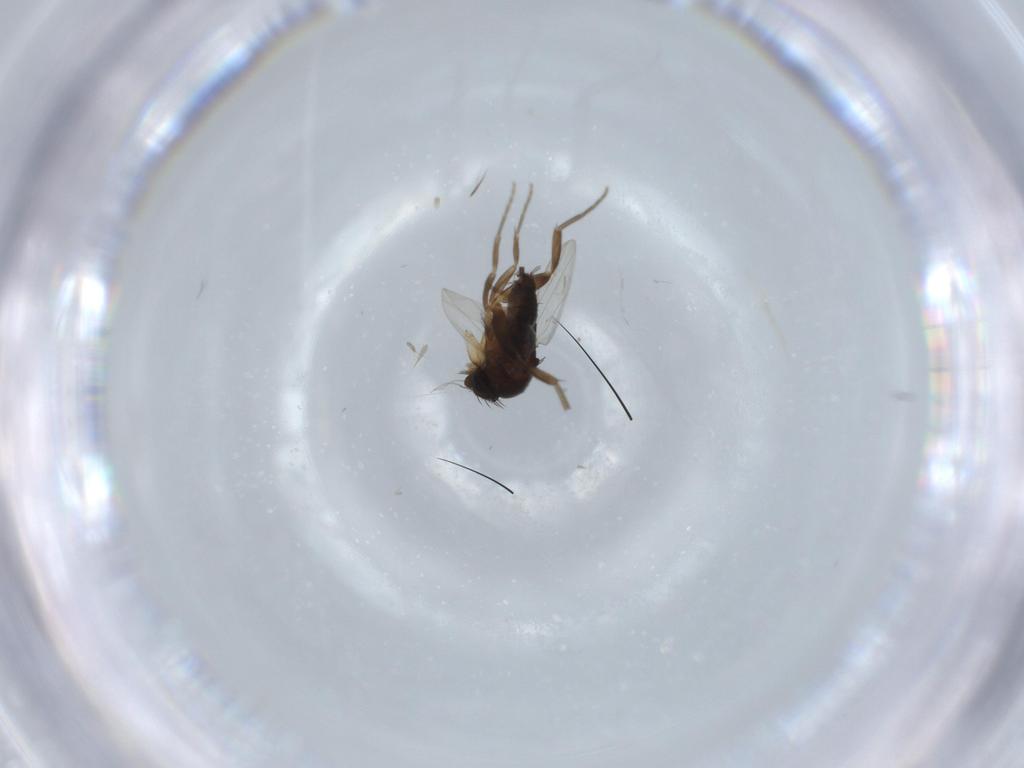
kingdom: Animalia
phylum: Arthropoda
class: Insecta
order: Diptera
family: Phoridae
